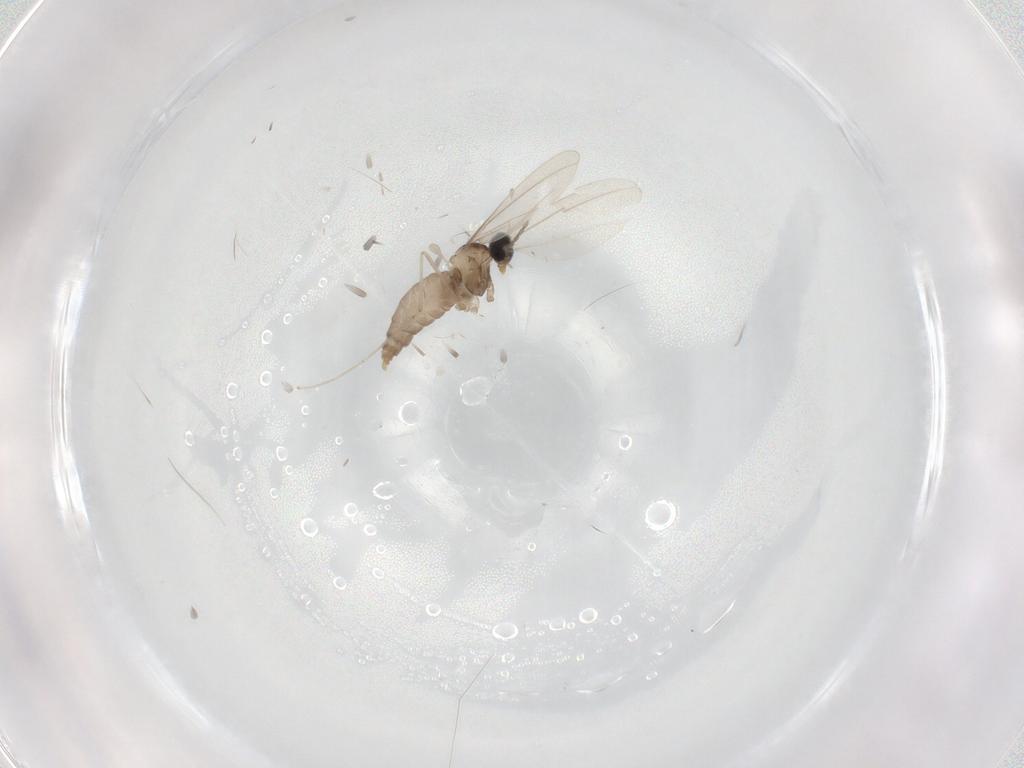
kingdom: Animalia
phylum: Arthropoda
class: Insecta
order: Diptera
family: Cecidomyiidae
